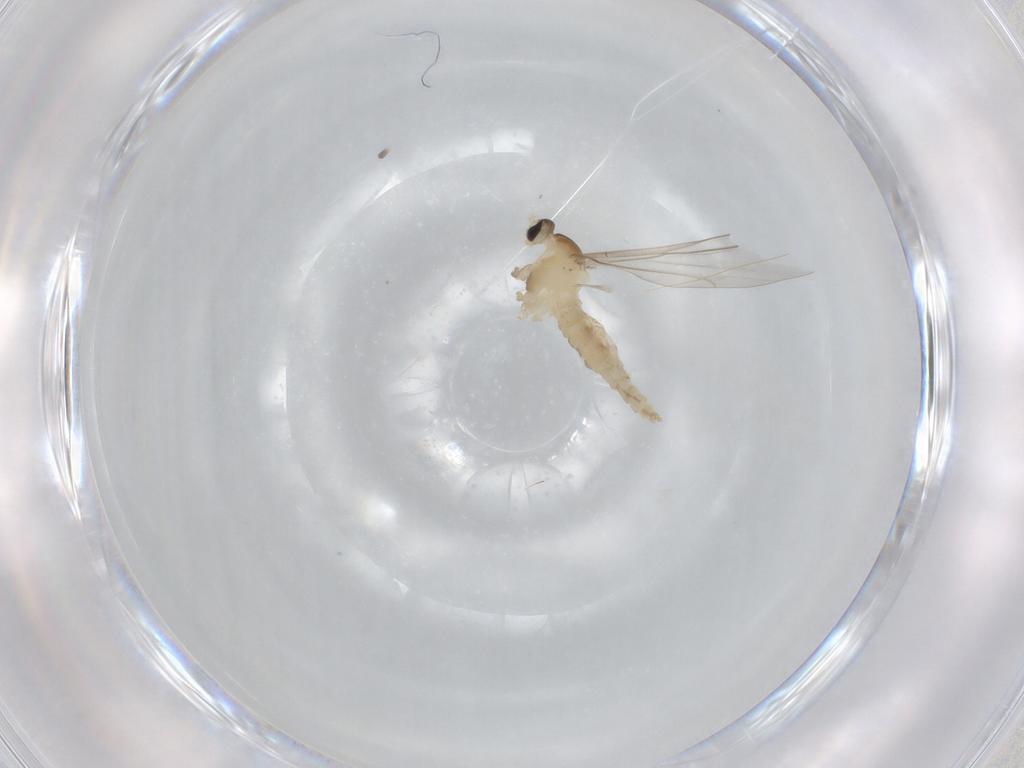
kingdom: Animalia
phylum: Arthropoda
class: Insecta
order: Diptera
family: Cecidomyiidae
